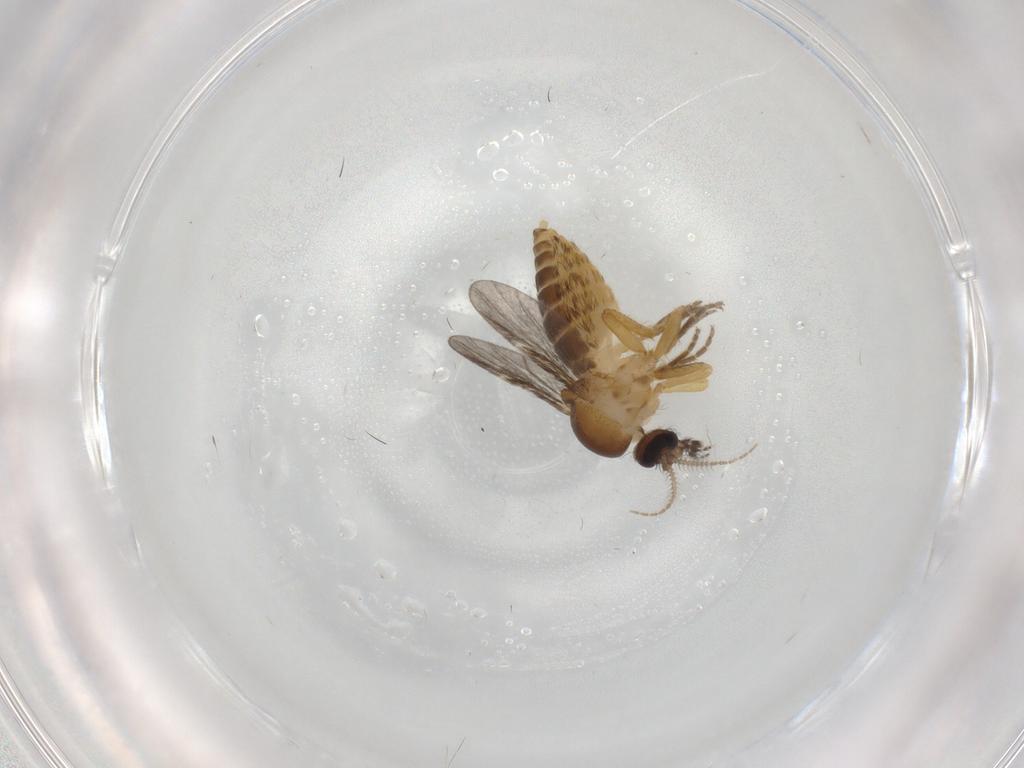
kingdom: Animalia
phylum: Arthropoda
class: Insecta
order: Diptera
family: Ceratopogonidae
